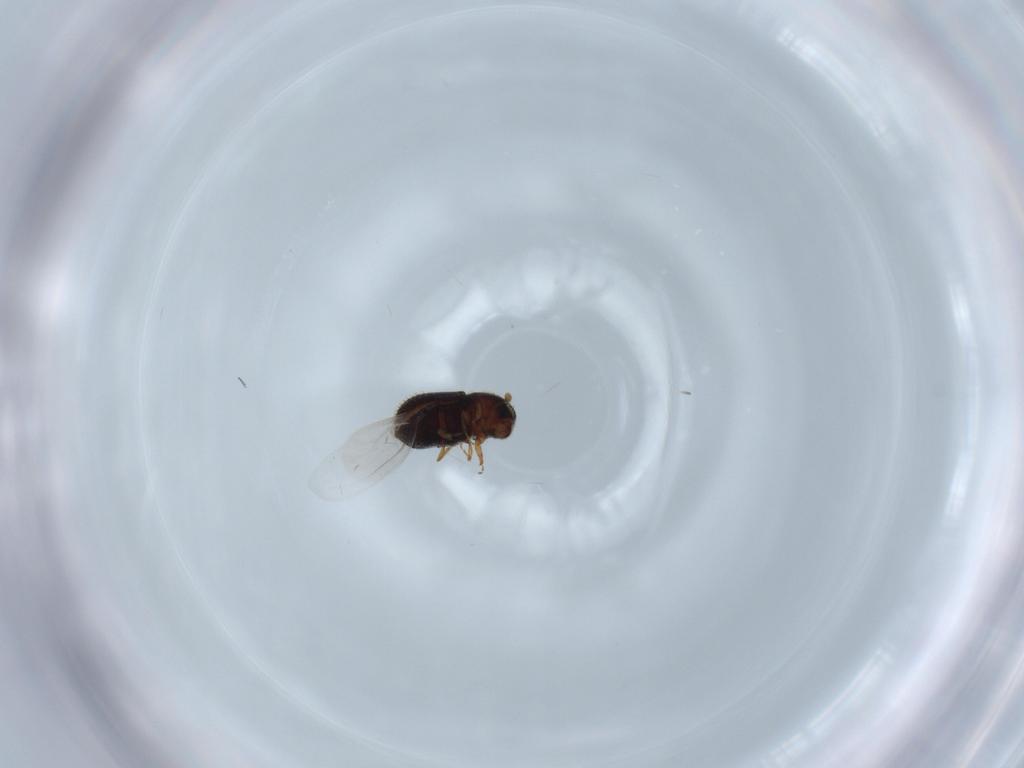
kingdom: Animalia
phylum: Arthropoda
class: Insecta
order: Coleoptera
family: Curculionidae
